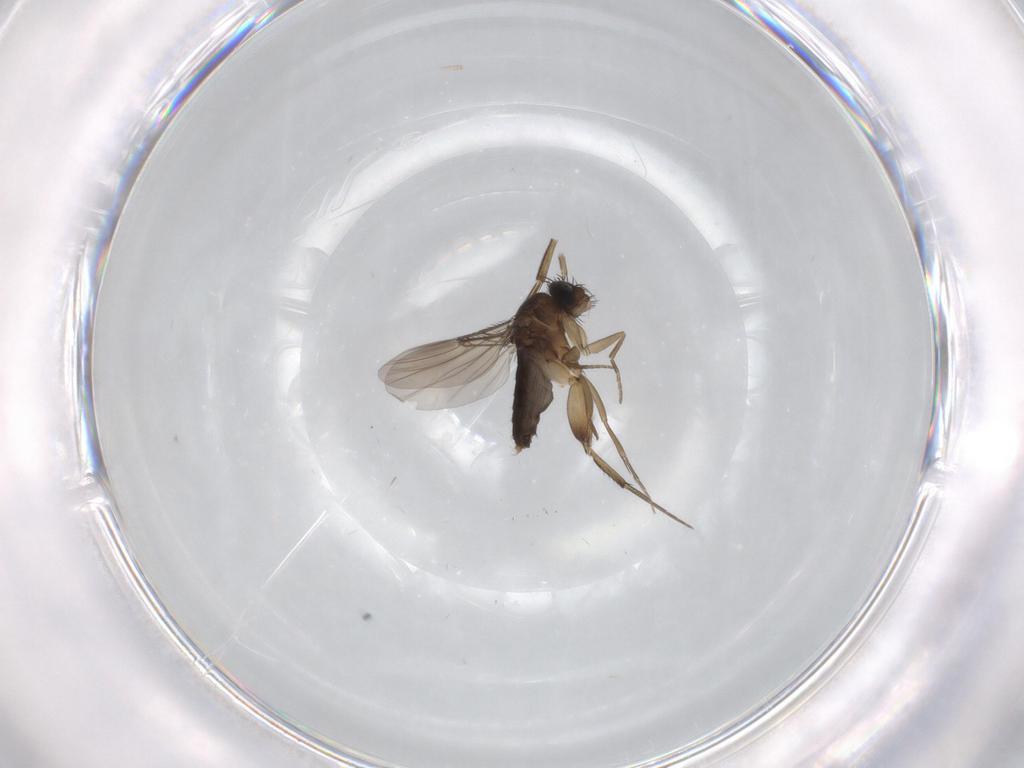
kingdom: Animalia
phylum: Arthropoda
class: Insecta
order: Diptera
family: Phoridae
